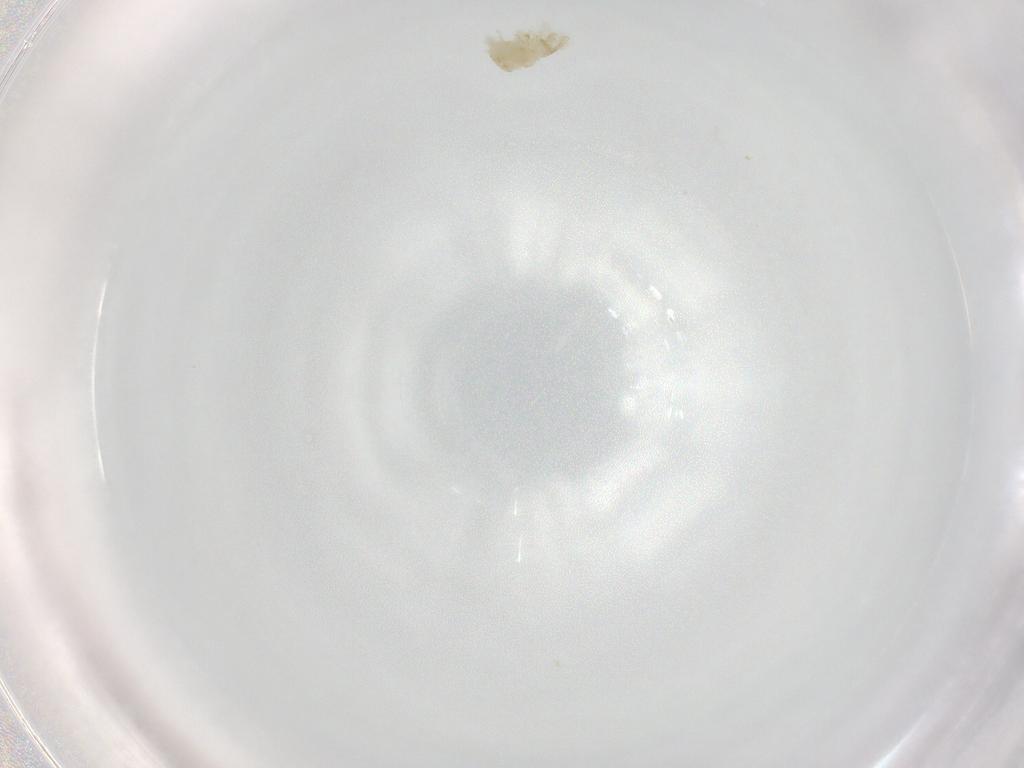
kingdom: Animalia
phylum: Arthropoda
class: Arachnida
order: Trombidiformes
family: Eupodidae
